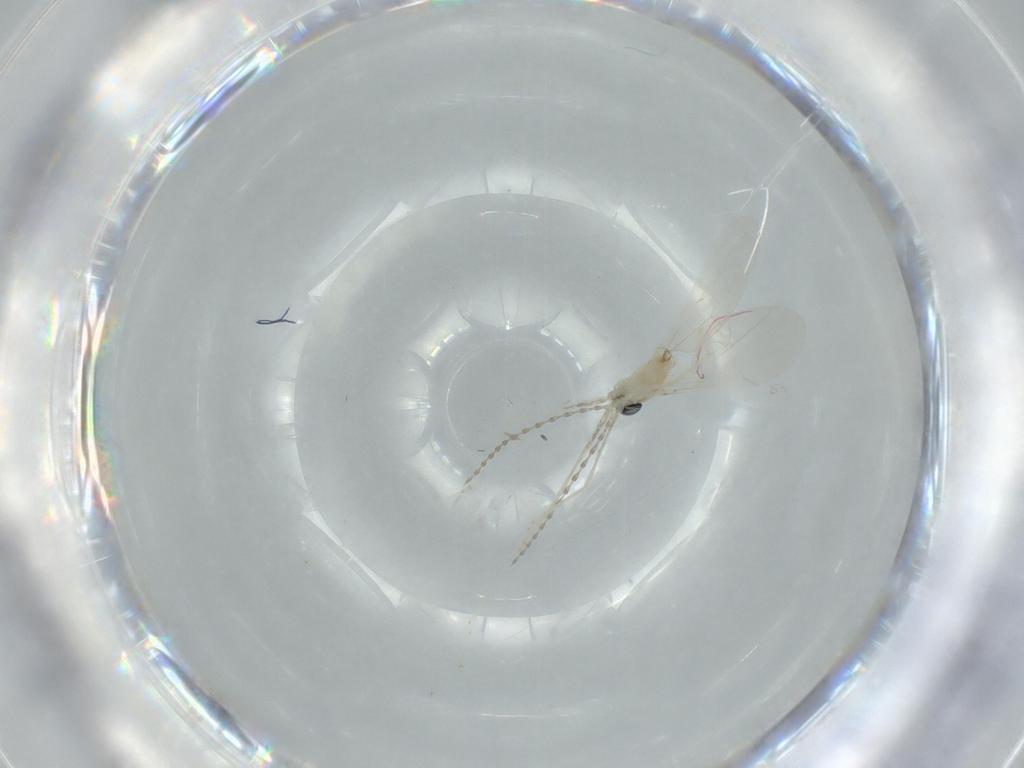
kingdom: Animalia
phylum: Arthropoda
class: Insecta
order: Diptera
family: Cecidomyiidae
